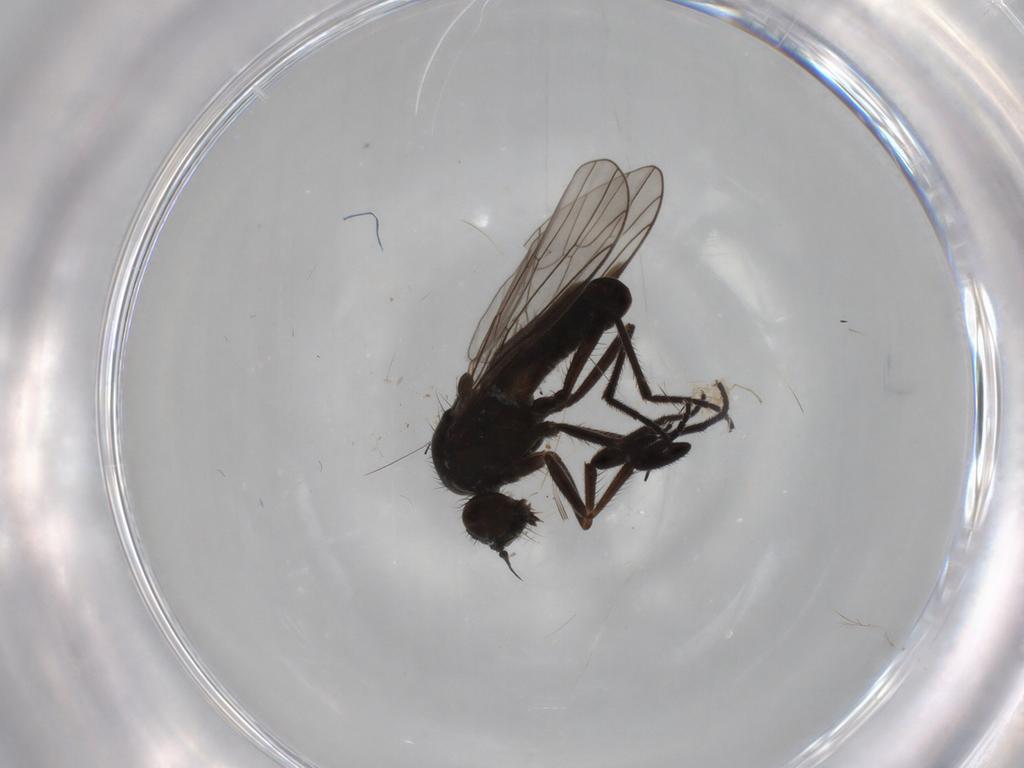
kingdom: Animalia
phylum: Arthropoda
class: Insecta
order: Diptera
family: Empididae
